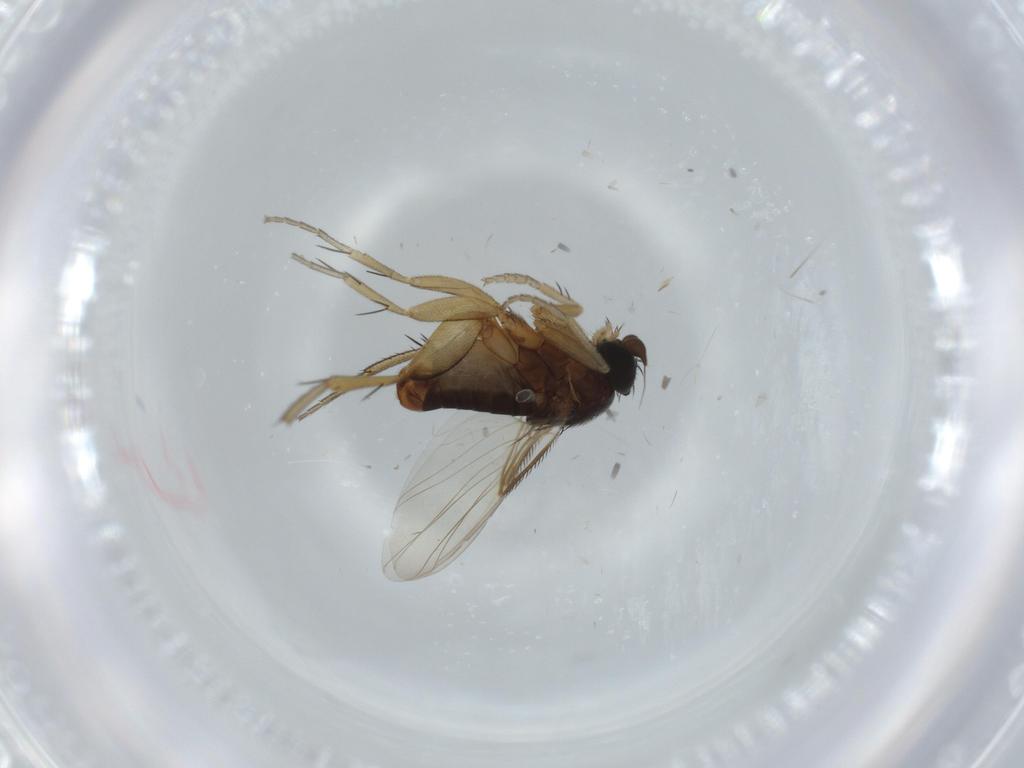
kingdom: Animalia
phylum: Arthropoda
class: Insecta
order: Diptera
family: Phoridae
